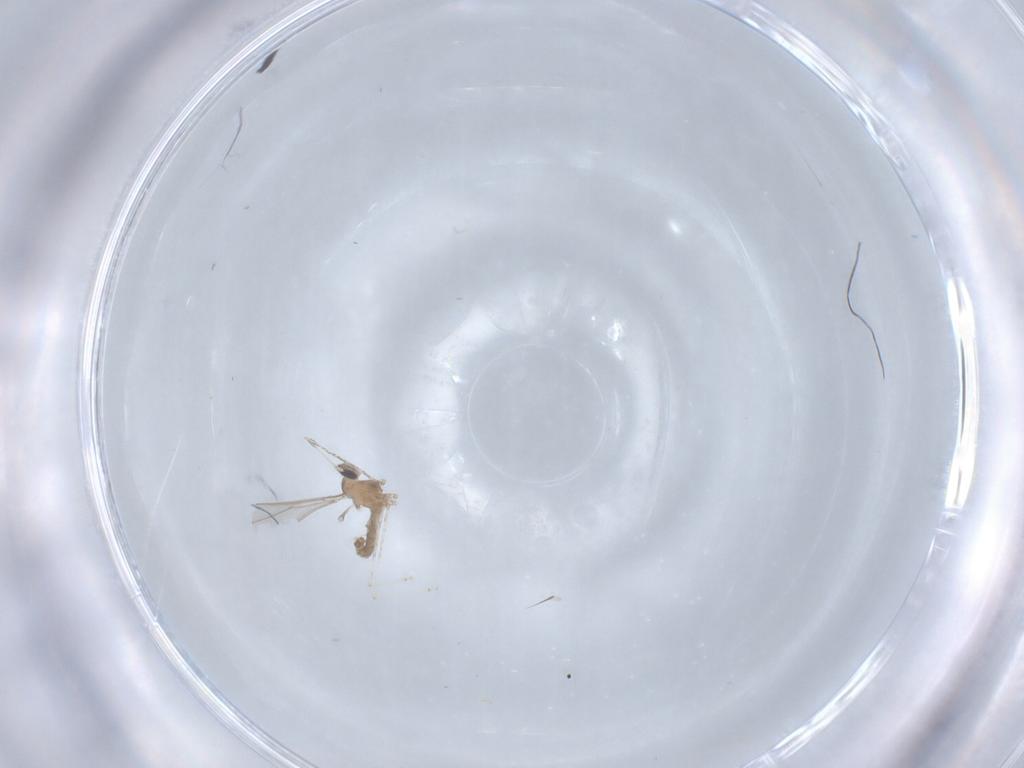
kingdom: Animalia
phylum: Arthropoda
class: Insecta
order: Diptera
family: Cecidomyiidae
